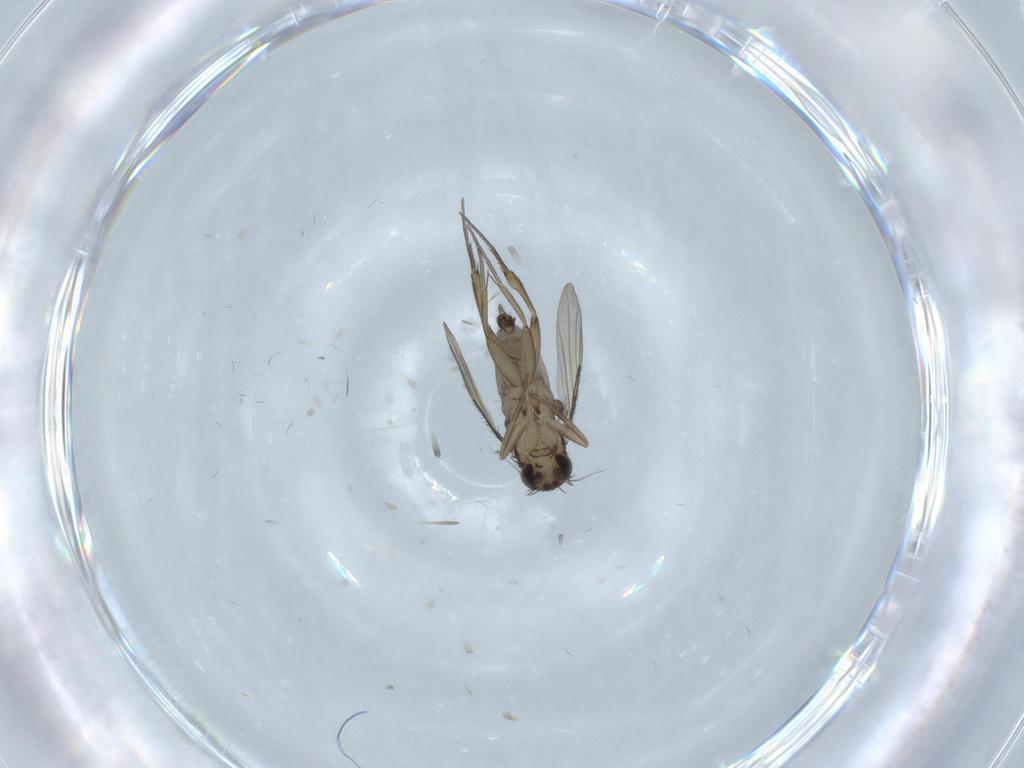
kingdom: Animalia
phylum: Arthropoda
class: Insecta
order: Diptera
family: Phoridae
